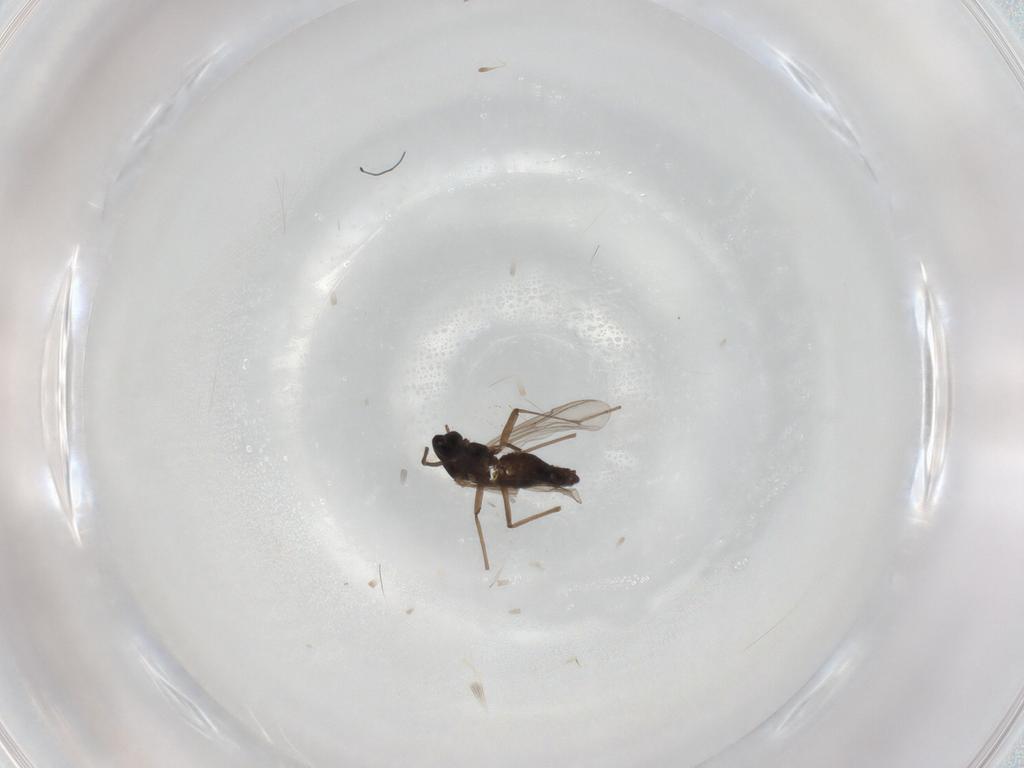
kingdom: Animalia
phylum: Arthropoda
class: Insecta
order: Diptera
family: Chironomidae
